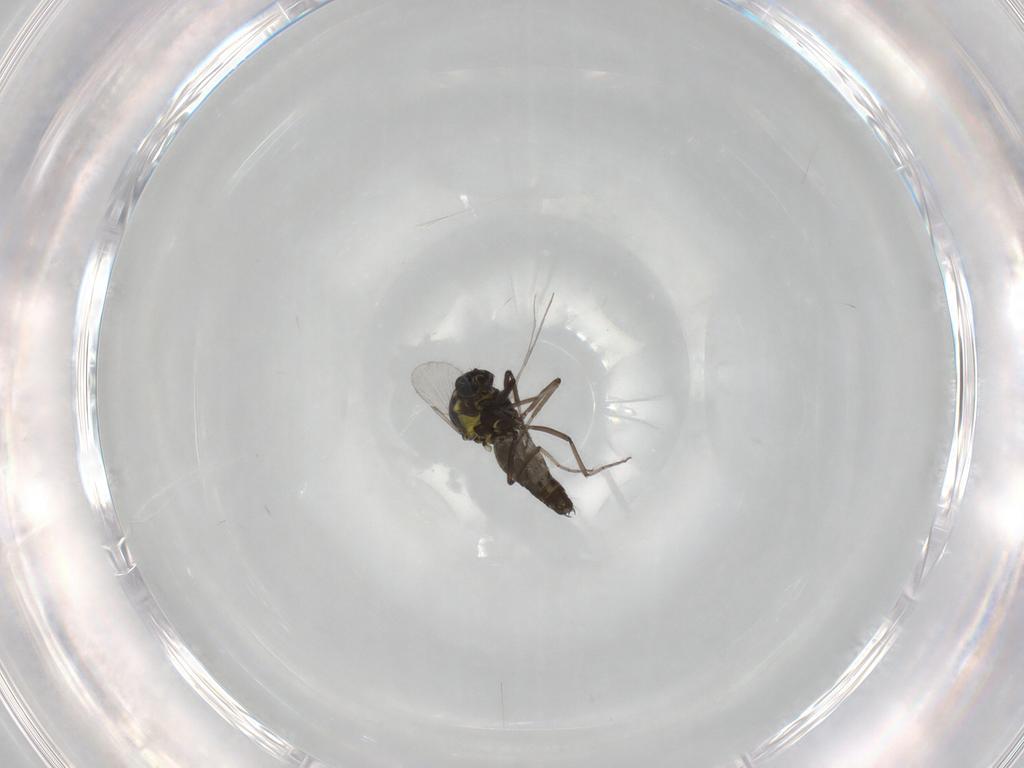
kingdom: Animalia
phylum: Arthropoda
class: Insecta
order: Diptera
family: Ceratopogonidae
